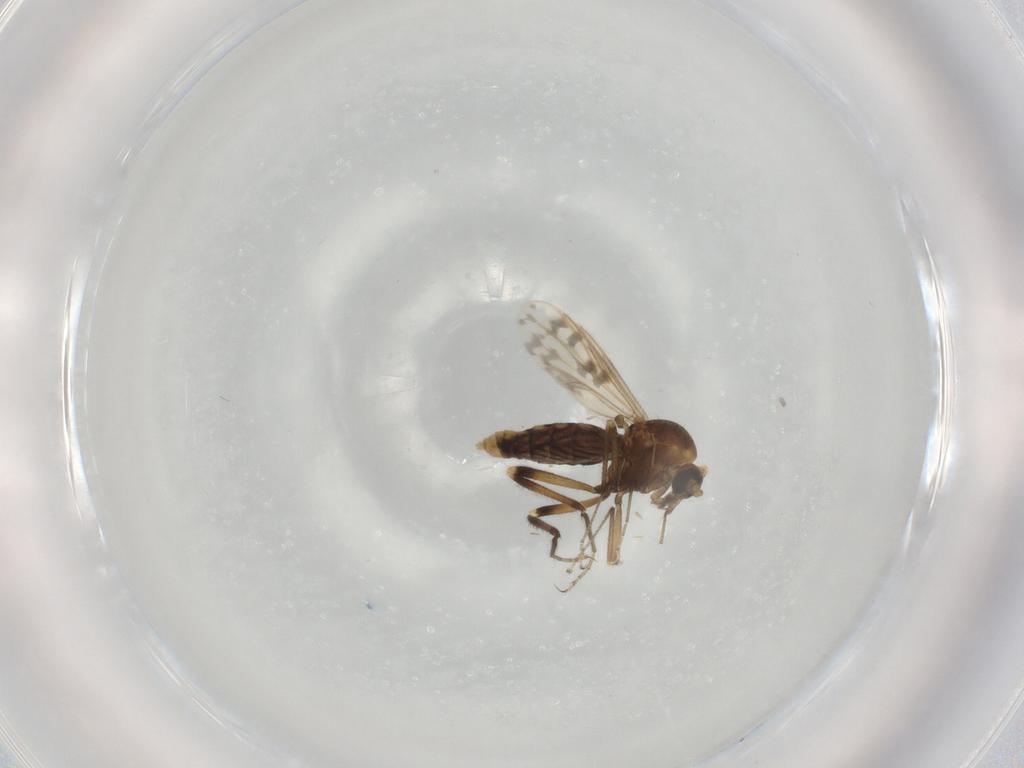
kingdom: Animalia
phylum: Arthropoda
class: Insecta
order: Diptera
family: Ceratopogonidae
